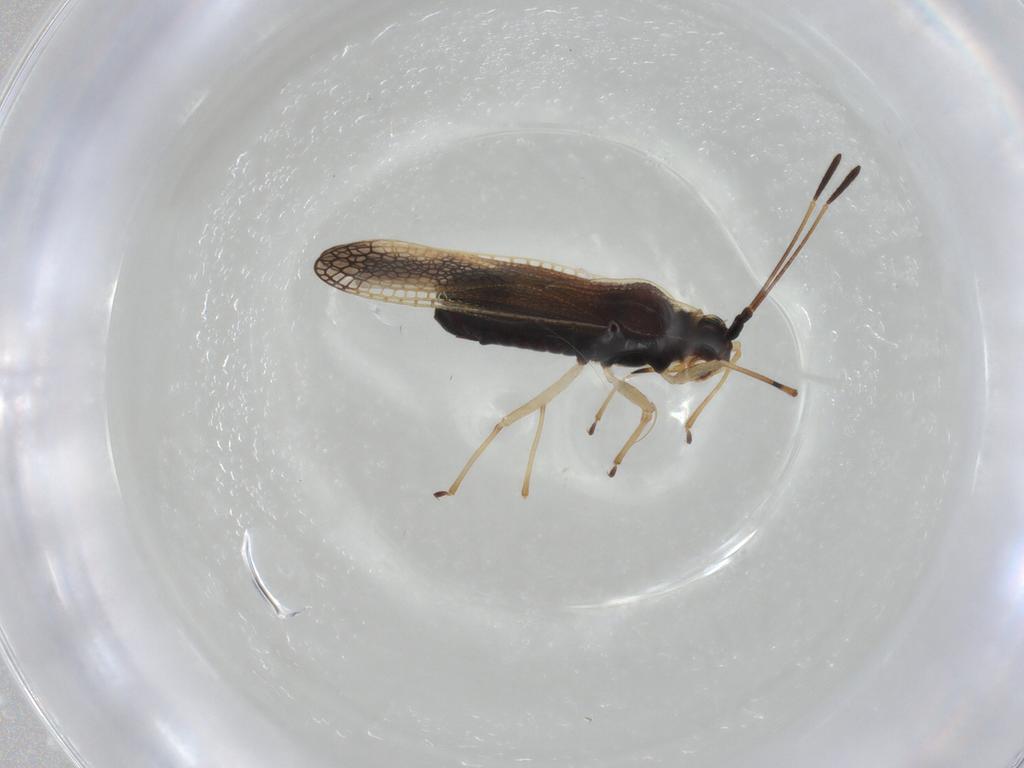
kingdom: Animalia
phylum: Arthropoda
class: Insecta
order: Hemiptera
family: Tingidae
